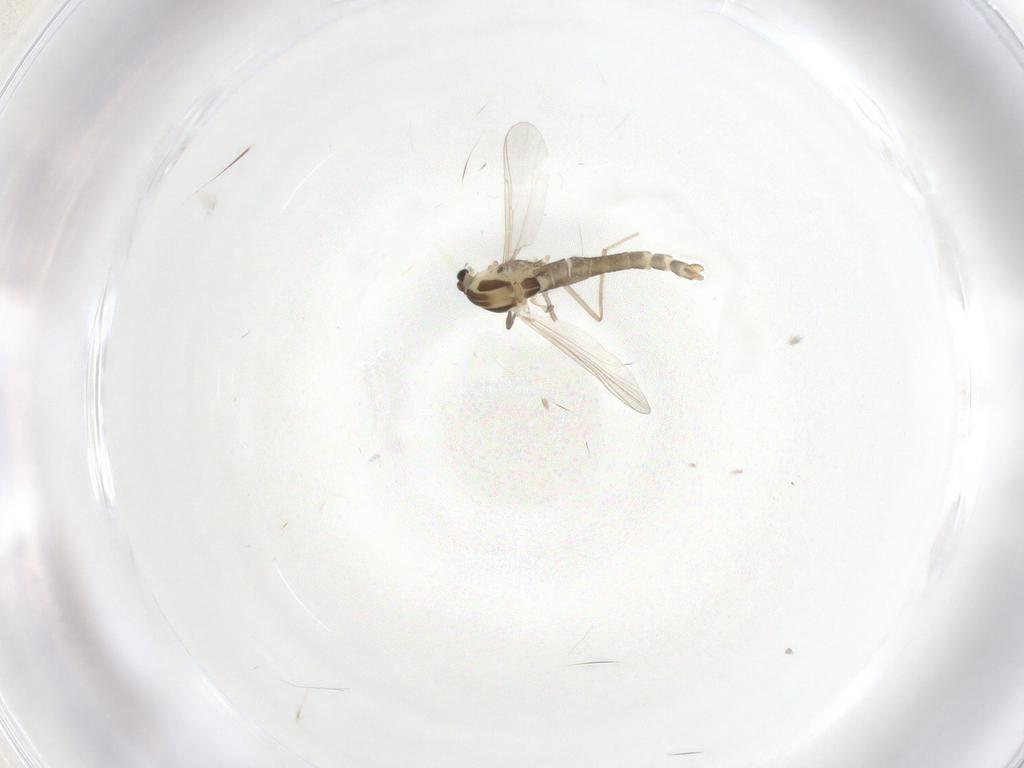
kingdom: Animalia
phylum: Arthropoda
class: Insecta
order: Diptera
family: Chironomidae
